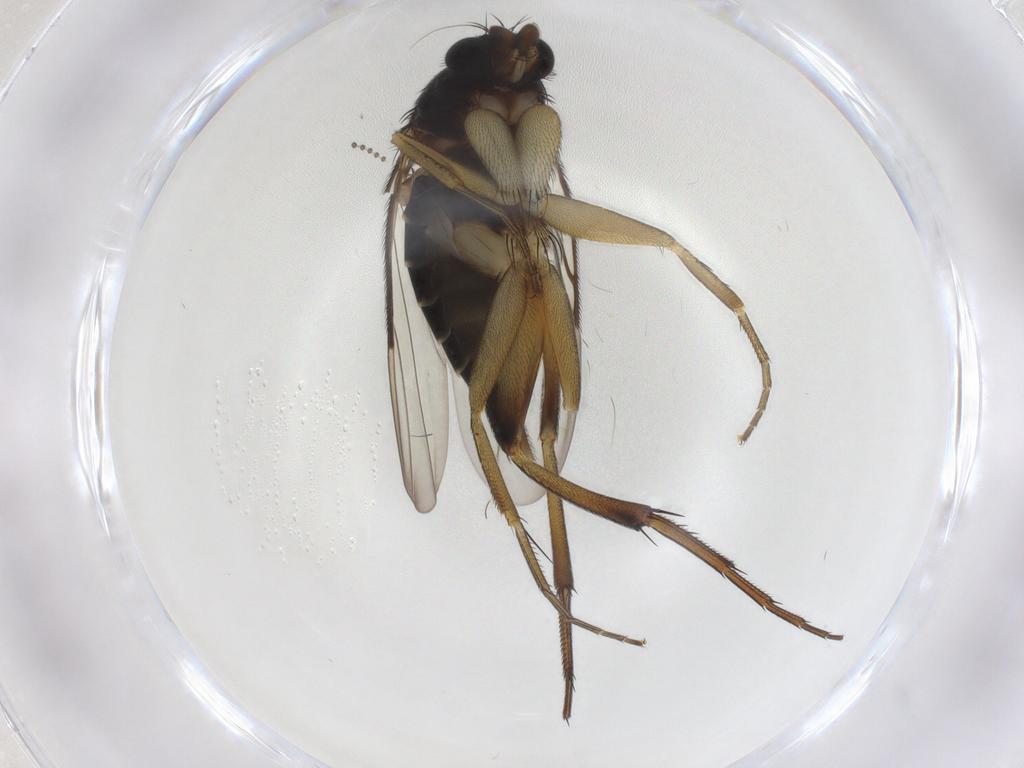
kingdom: Animalia
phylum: Arthropoda
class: Insecta
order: Diptera
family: Phoridae
